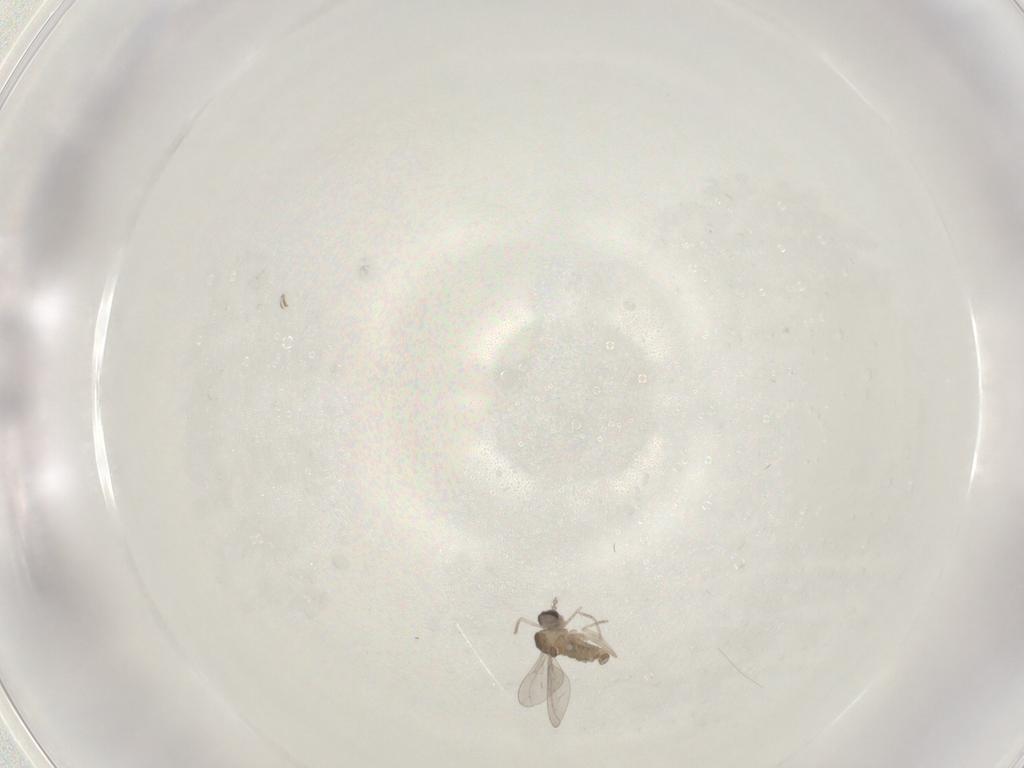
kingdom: Animalia
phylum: Arthropoda
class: Insecta
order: Diptera
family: Cecidomyiidae
